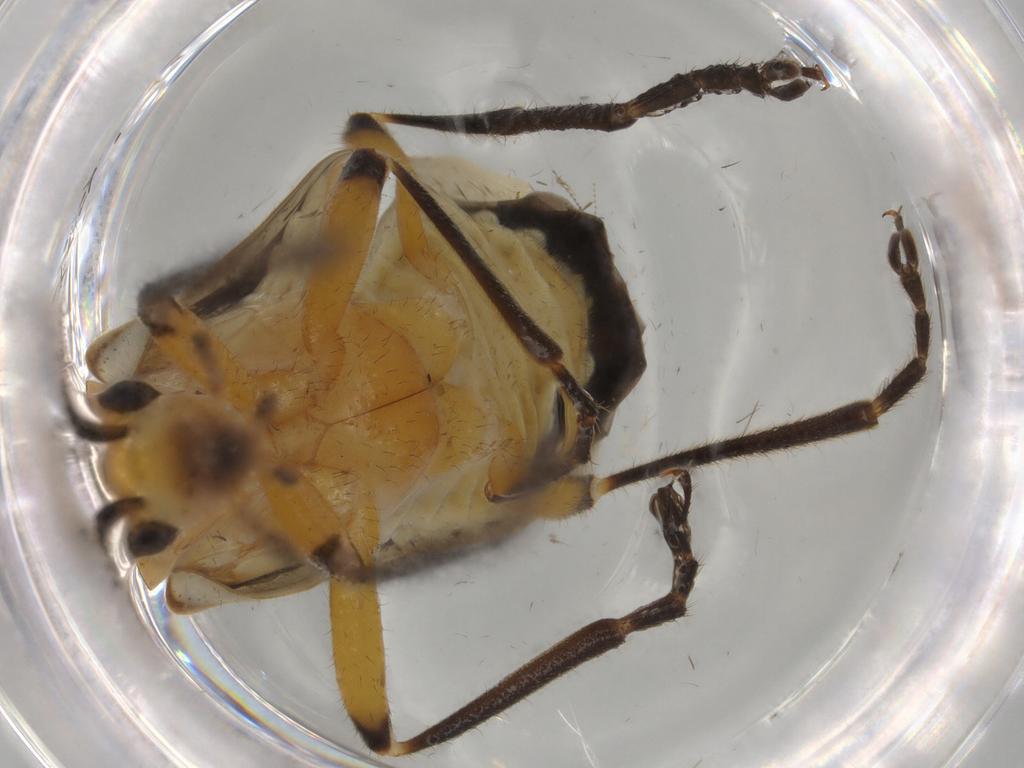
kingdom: Animalia
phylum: Arthropoda
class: Insecta
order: Coleoptera
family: Oedemeridae
